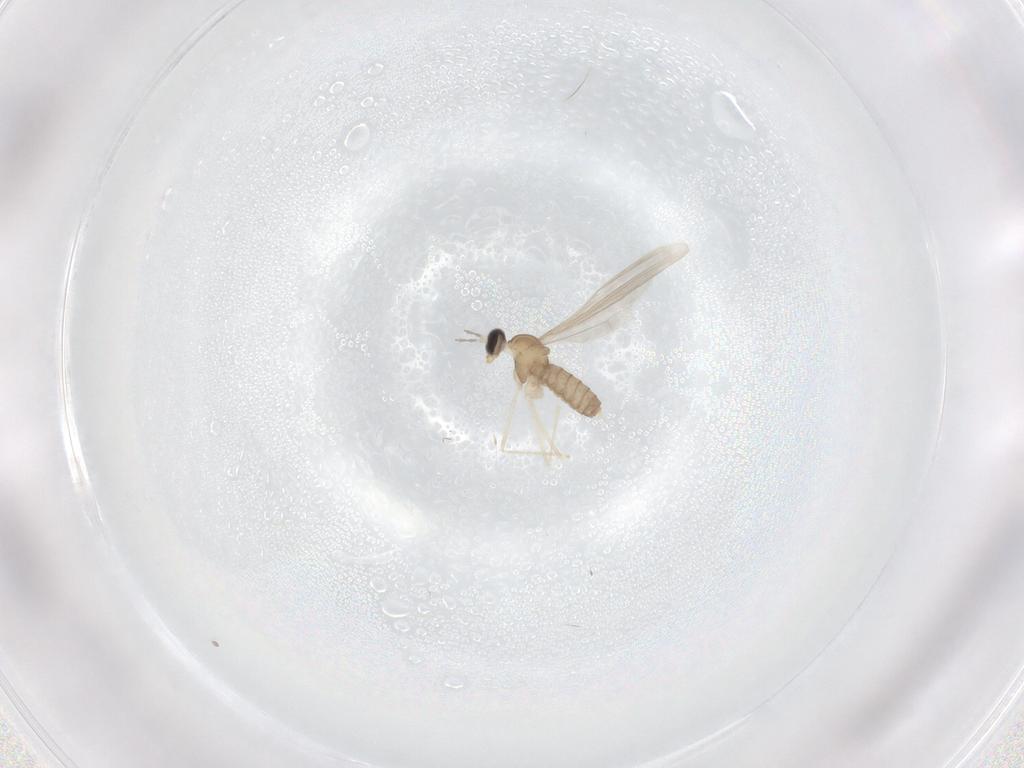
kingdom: Animalia
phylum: Arthropoda
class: Insecta
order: Diptera
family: Cecidomyiidae
